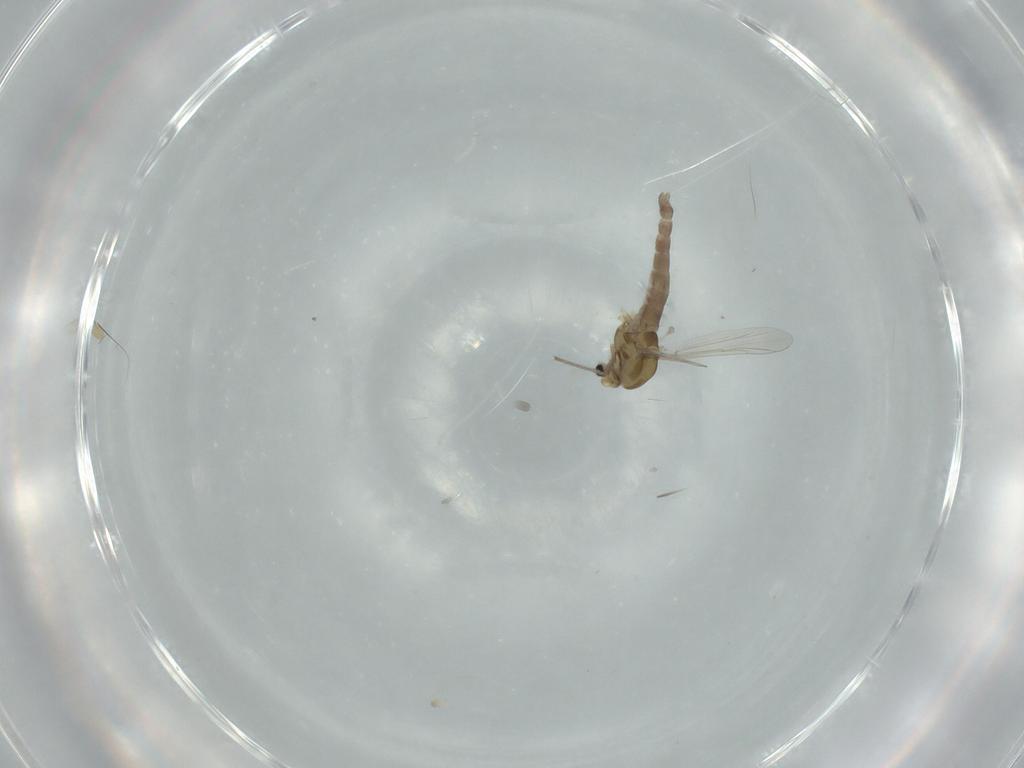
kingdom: Animalia
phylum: Arthropoda
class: Insecta
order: Diptera
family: Chironomidae
